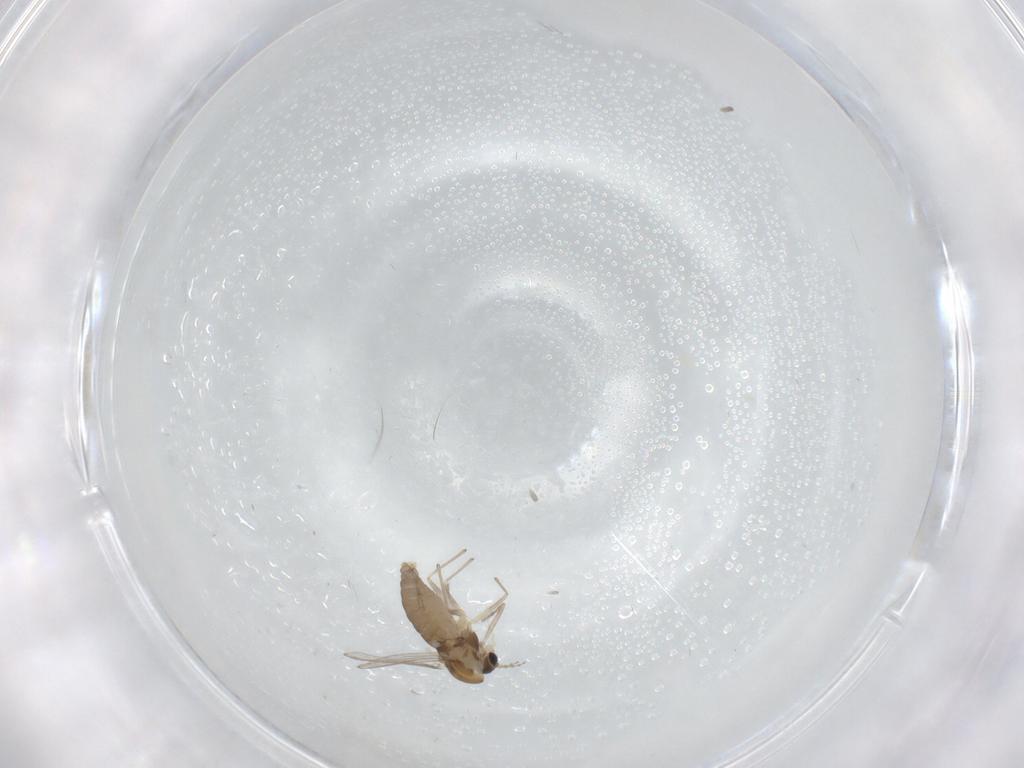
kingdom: Animalia
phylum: Arthropoda
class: Insecta
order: Diptera
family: Chironomidae
